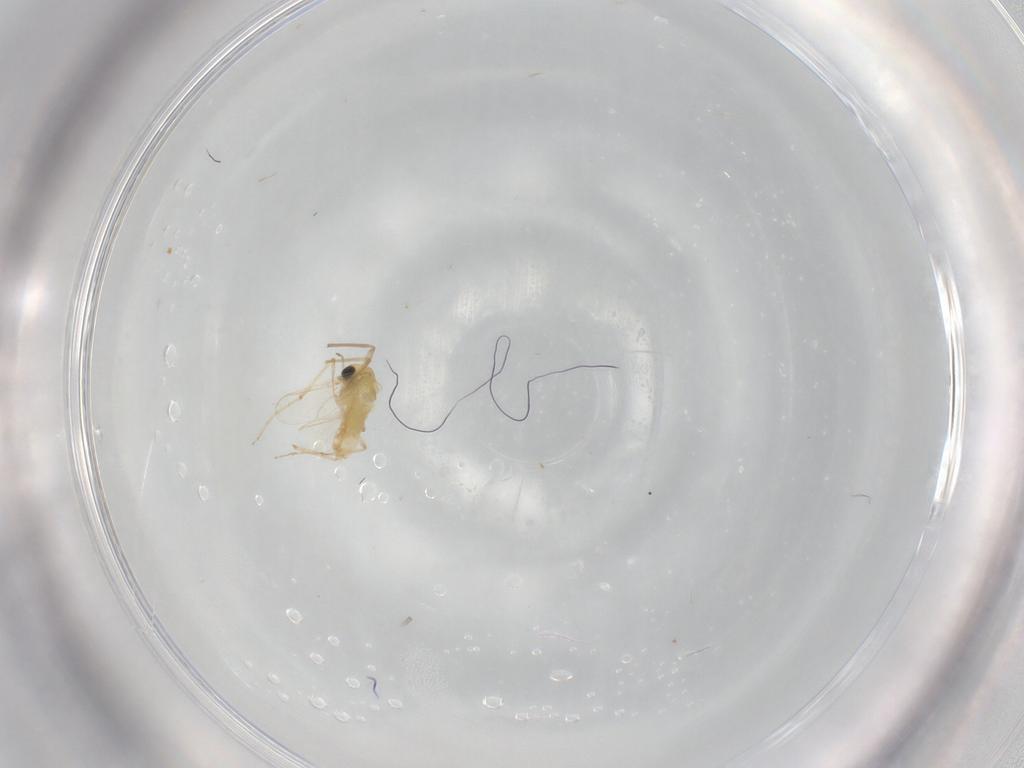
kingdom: Animalia
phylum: Arthropoda
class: Insecta
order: Diptera
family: Chironomidae
